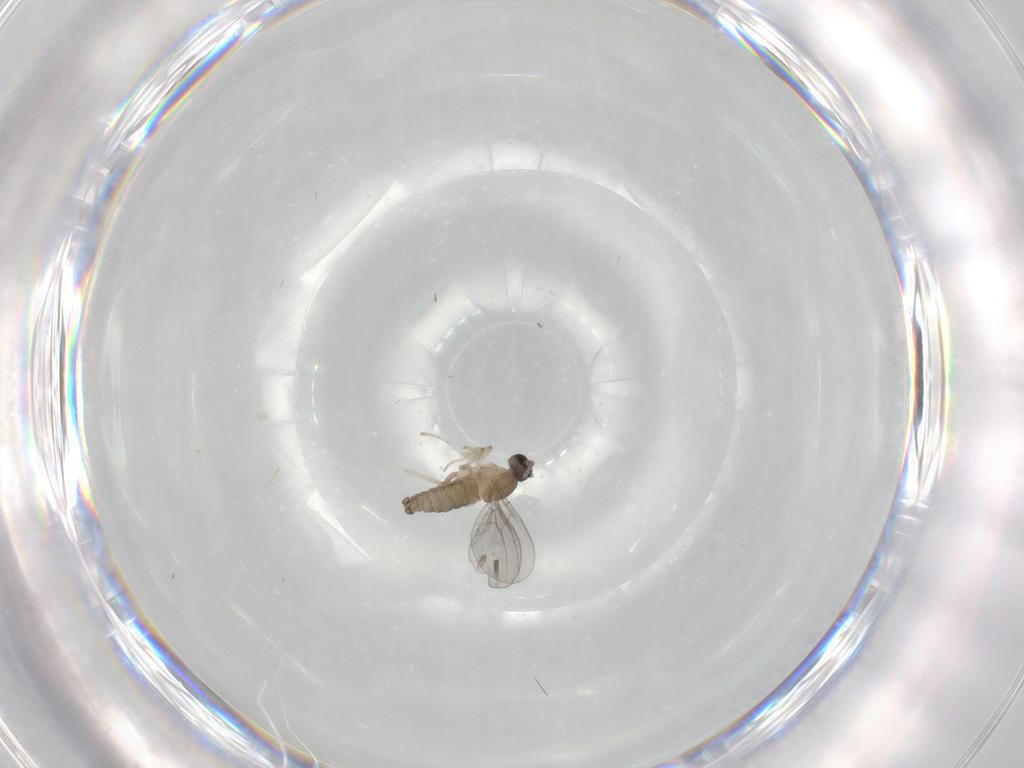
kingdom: Animalia
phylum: Arthropoda
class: Insecta
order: Diptera
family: Cecidomyiidae
